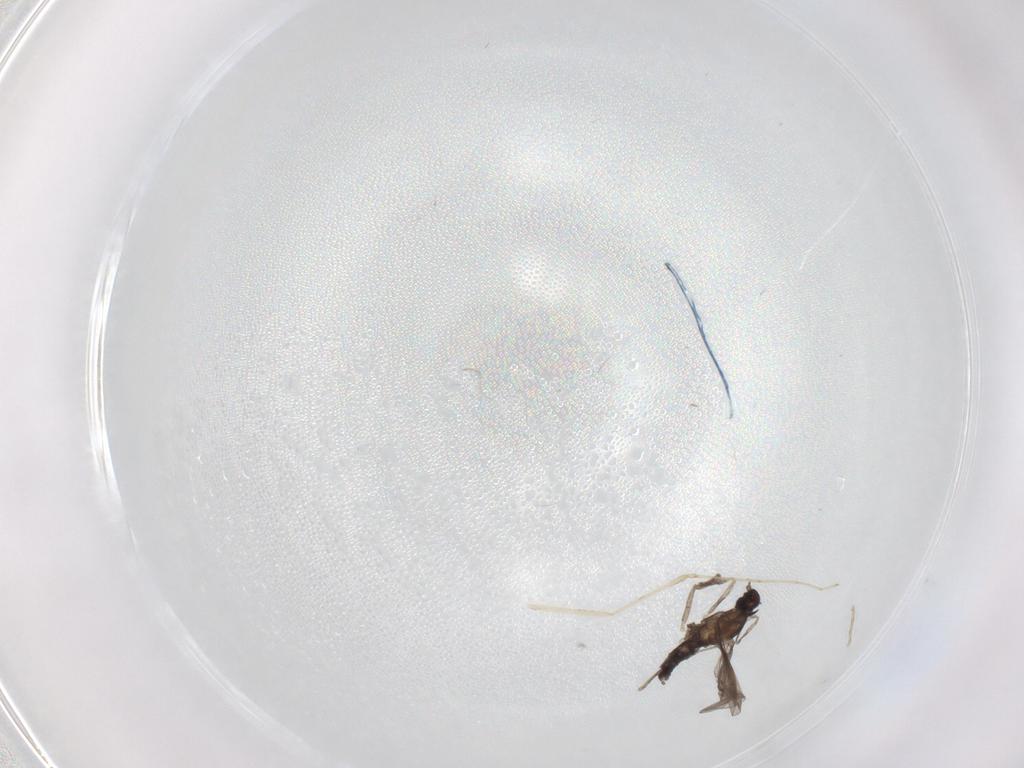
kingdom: Animalia
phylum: Arthropoda
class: Insecta
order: Diptera
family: Cecidomyiidae
